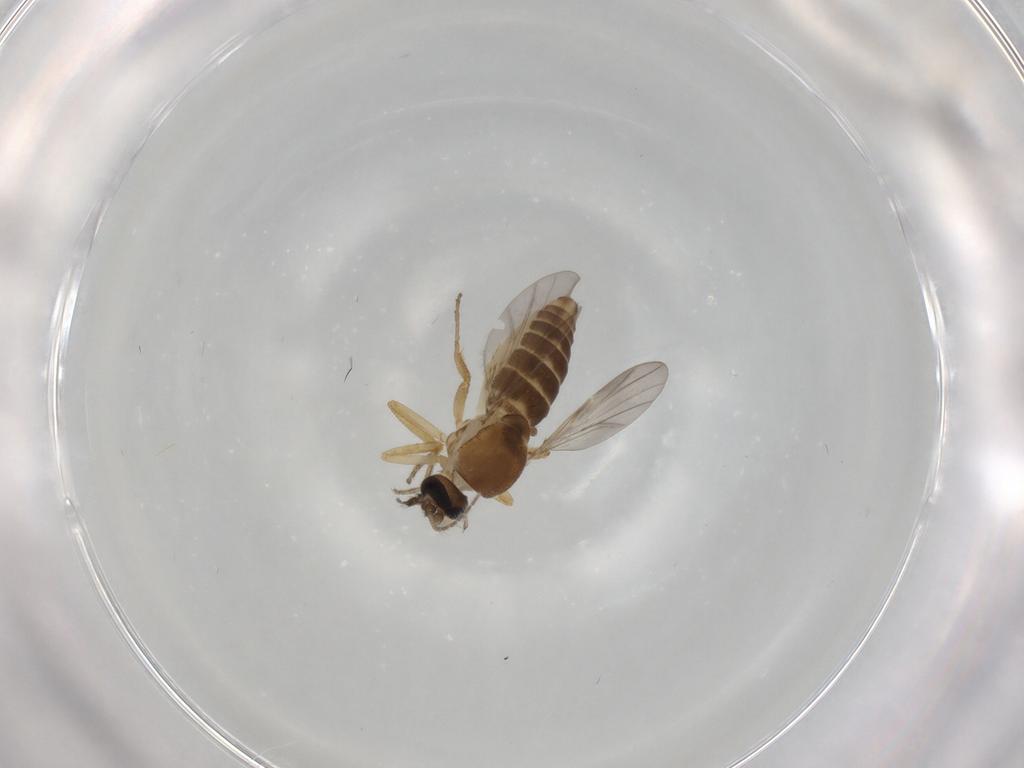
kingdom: Animalia
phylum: Arthropoda
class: Insecta
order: Diptera
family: Ceratopogonidae
